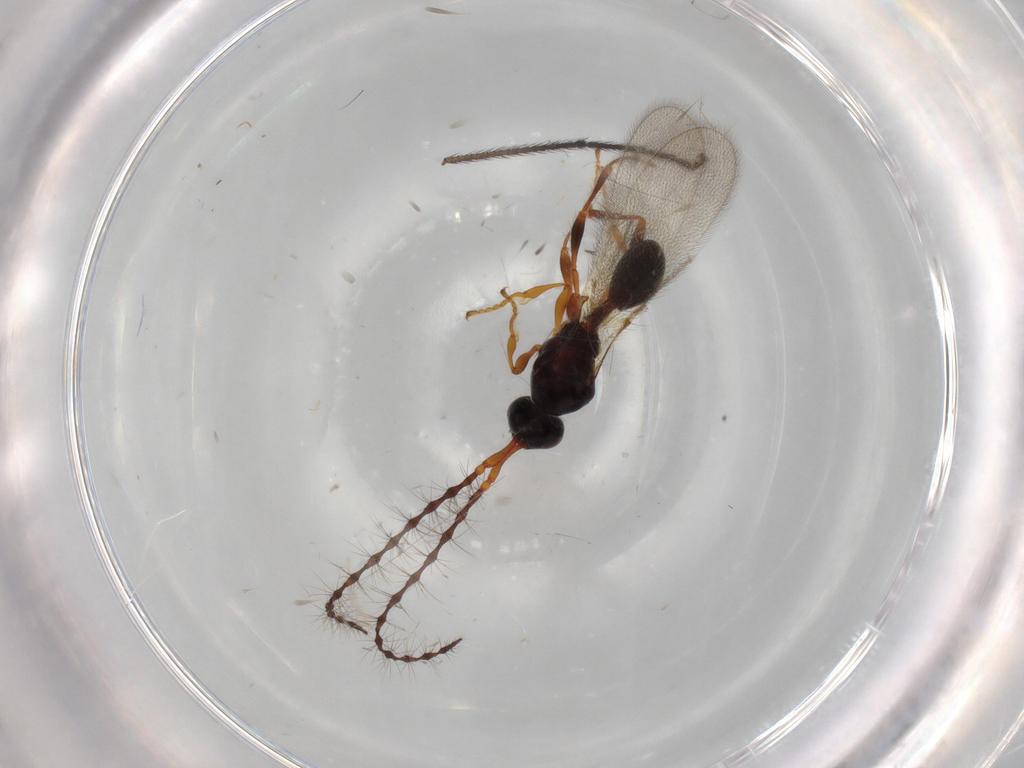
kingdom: Animalia
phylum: Arthropoda
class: Insecta
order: Hymenoptera
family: Diapriidae
